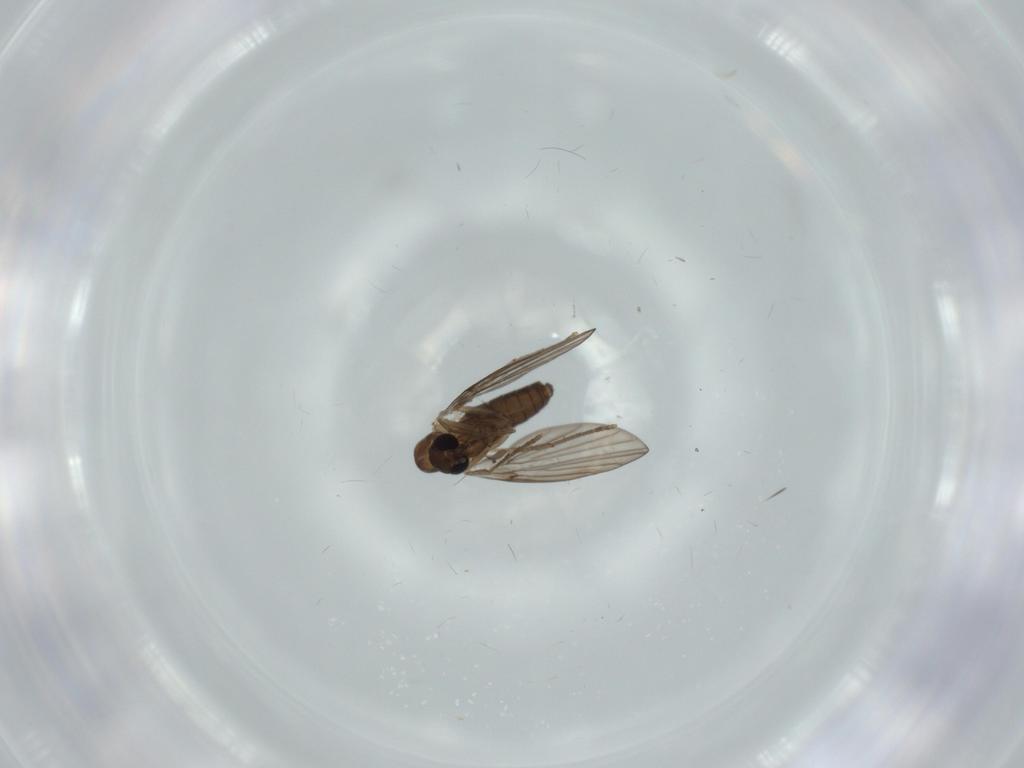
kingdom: Animalia
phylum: Arthropoda
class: Insecta
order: Diptera
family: Psychodidae
